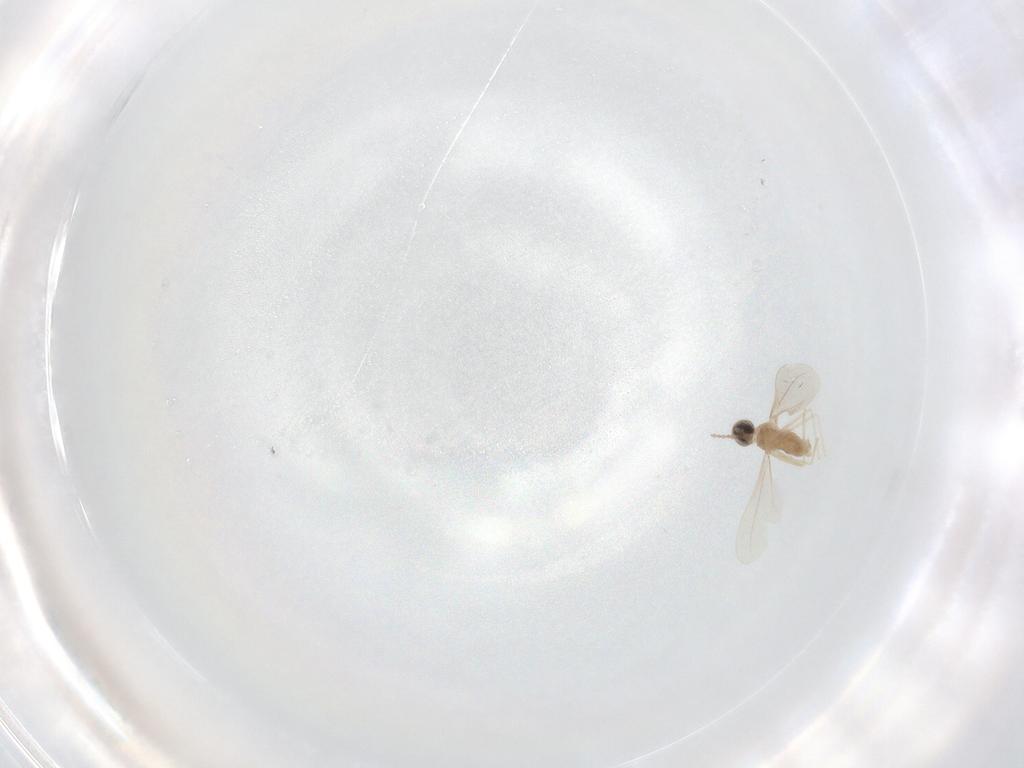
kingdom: Animalia
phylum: Arthropoda
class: Insecta
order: Diptera
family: Cecidomyiidae
